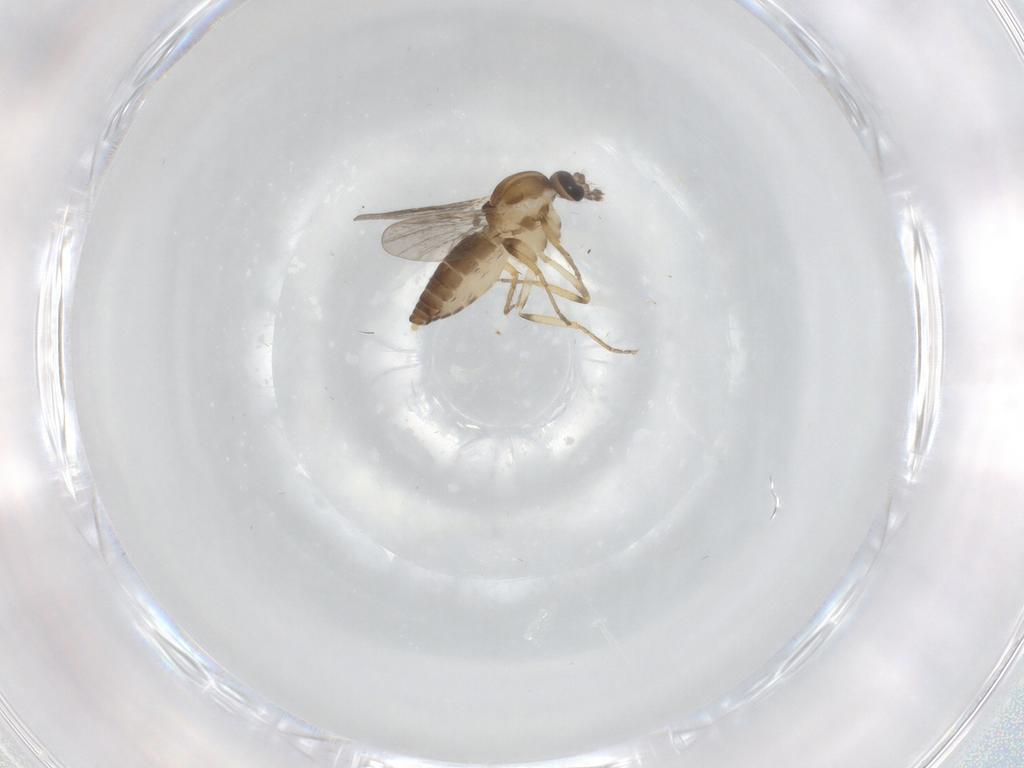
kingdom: Animalia
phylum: Arthropoda
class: Insecta
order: Diptera
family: Ceratopogonidae
